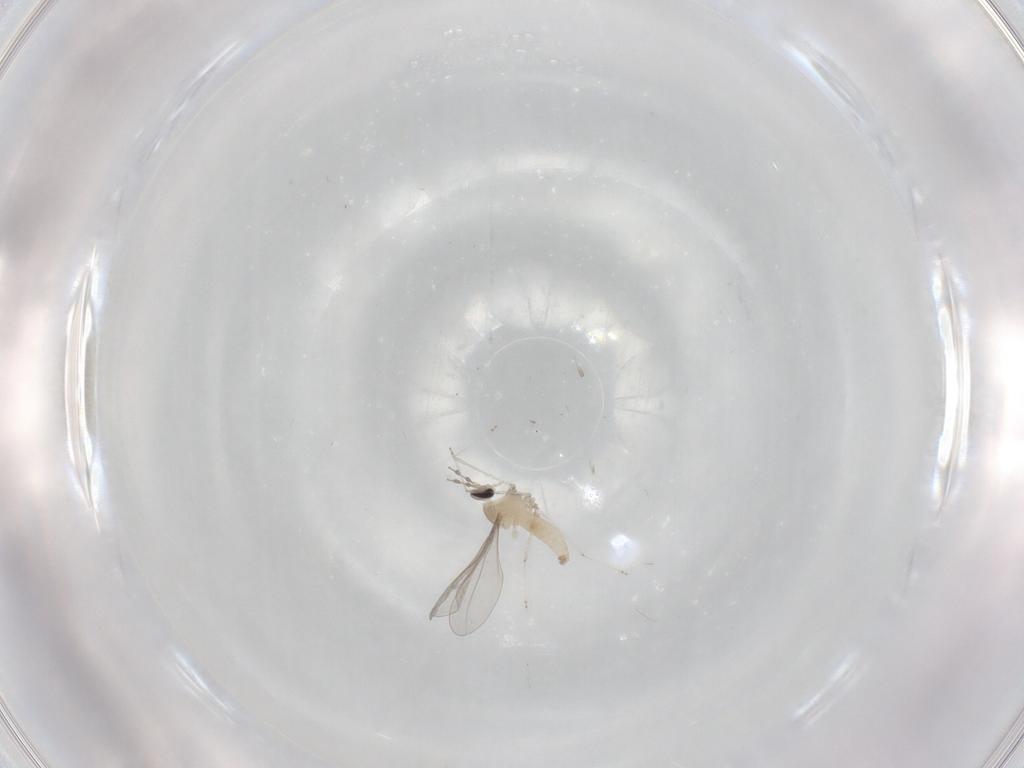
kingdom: Animalia
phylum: Arthropoda
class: Insecta
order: Diptera
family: Cecidomyiidae
